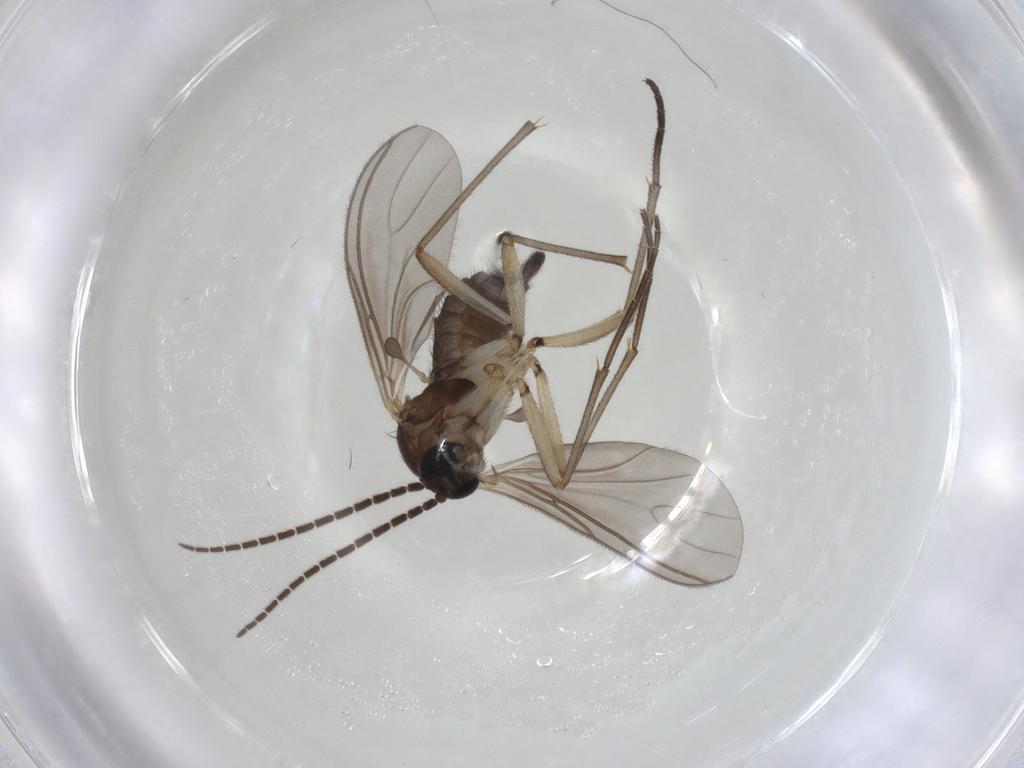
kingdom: Animalia
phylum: Arthropoda
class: Insecta
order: Diptera
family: Sciaridae
